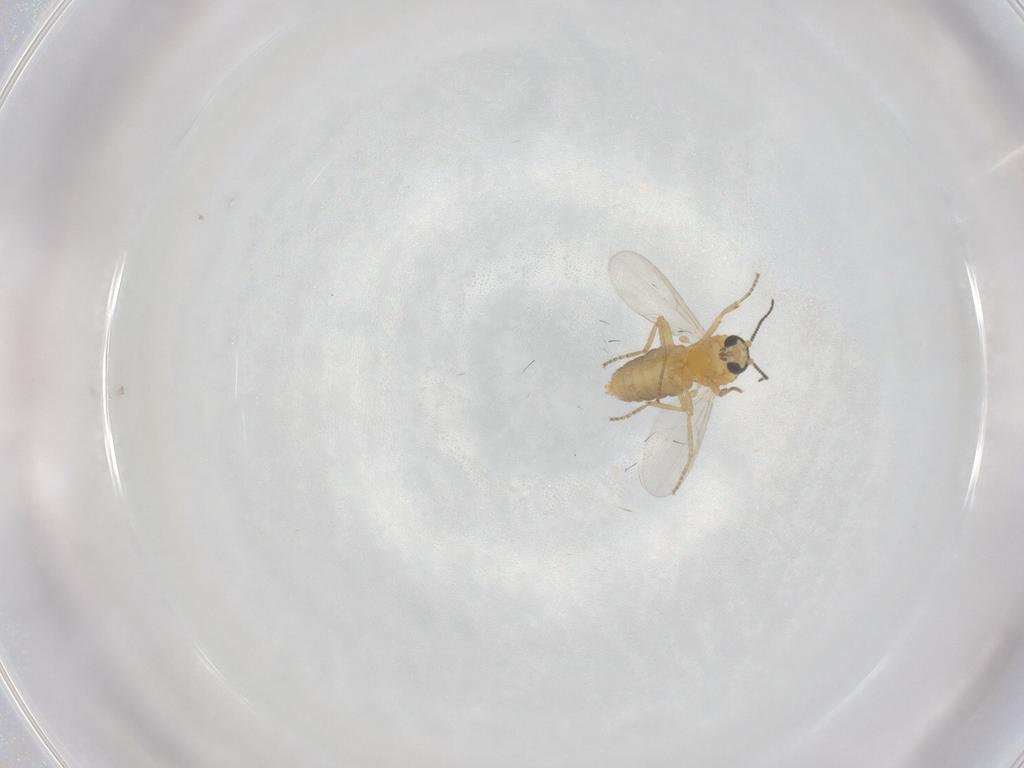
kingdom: Animalia
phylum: Arthropoda
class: Insecta
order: Diptera
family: Ceratopogonidae
